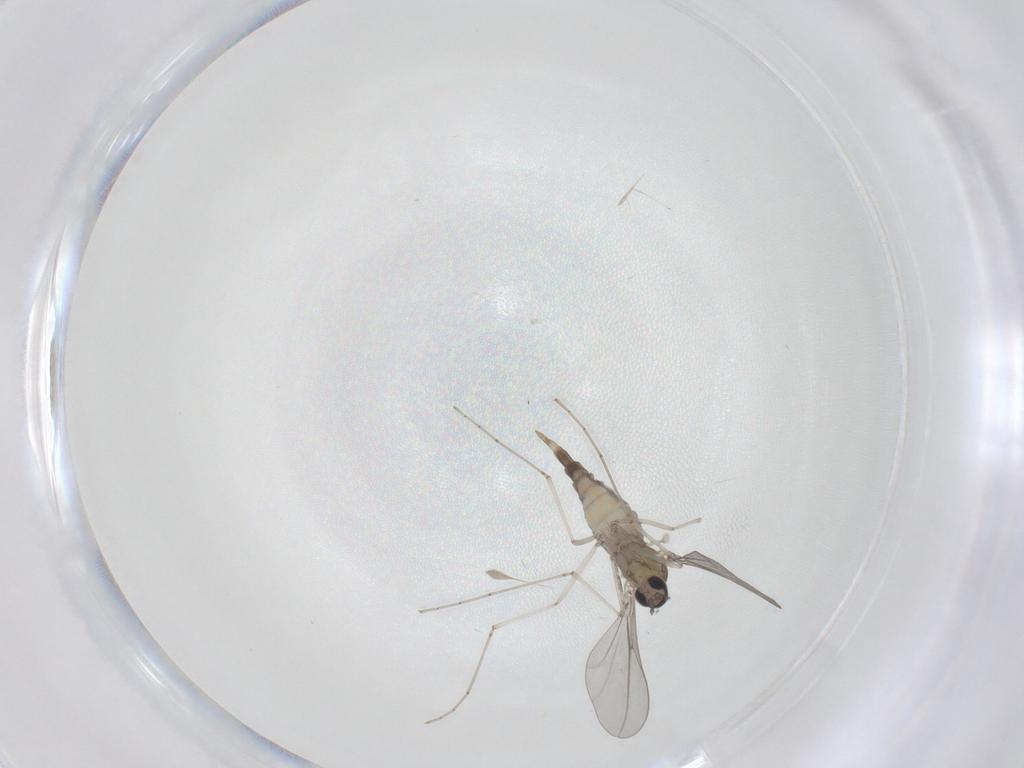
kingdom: Animalia
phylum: Arthropoda
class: Insecta
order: Diptera
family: Cecidomyiidae
